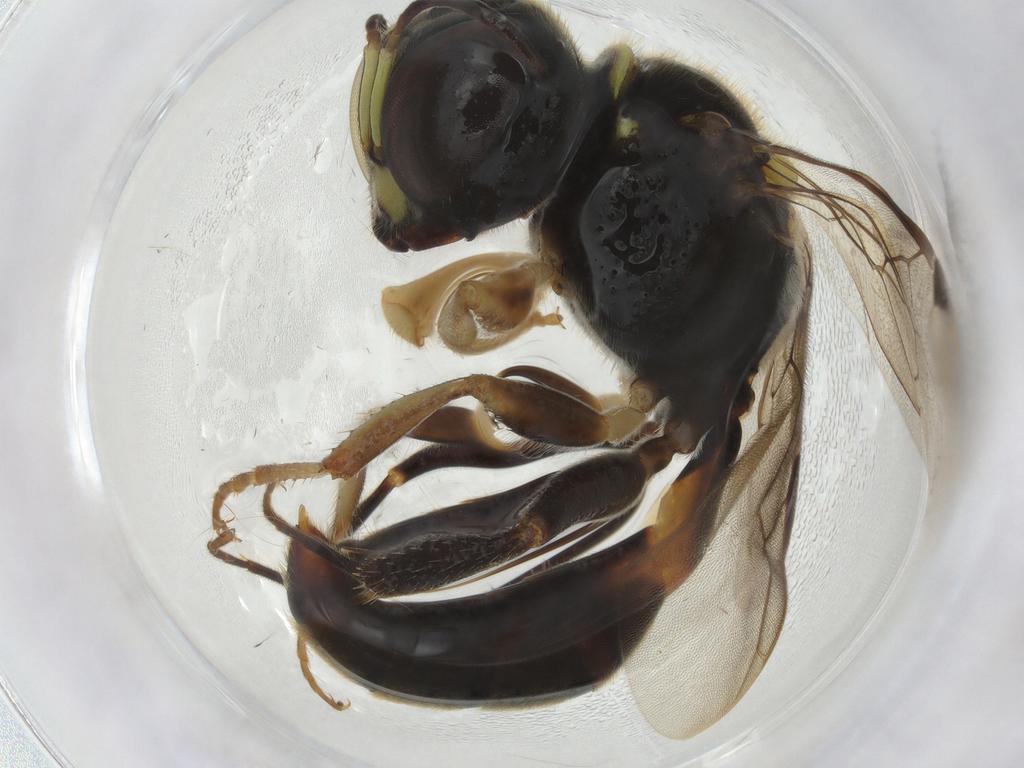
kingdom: Animalia
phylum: Arthropoda
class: Insecta
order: Hymenoptera
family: Crabronidae
